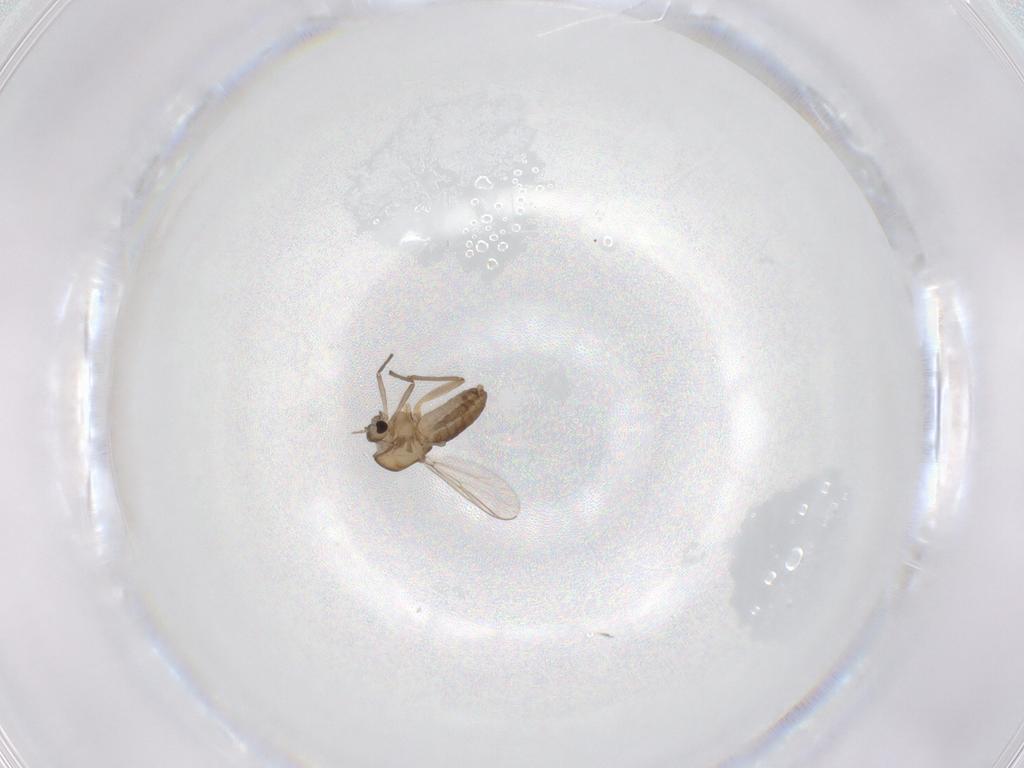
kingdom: Animalia
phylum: Arthropoda
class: Insecta
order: Diptera
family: Chironomidae
